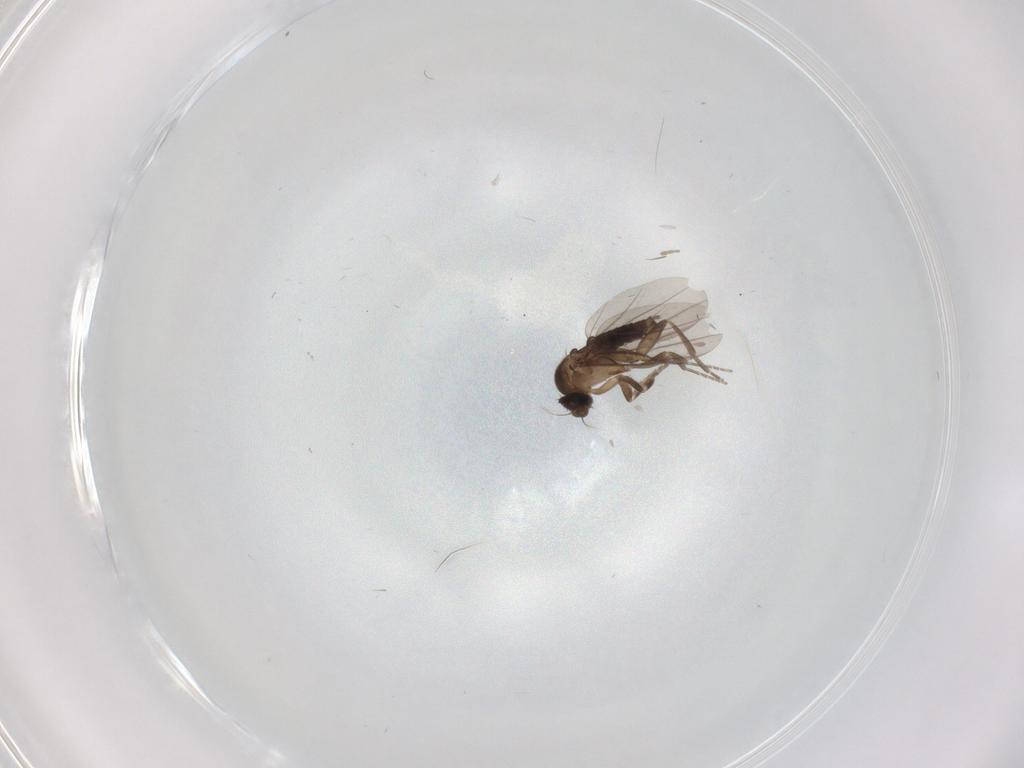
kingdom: Animalia
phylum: Arthropoda
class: Insecta
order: Diptera
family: Phoridae
